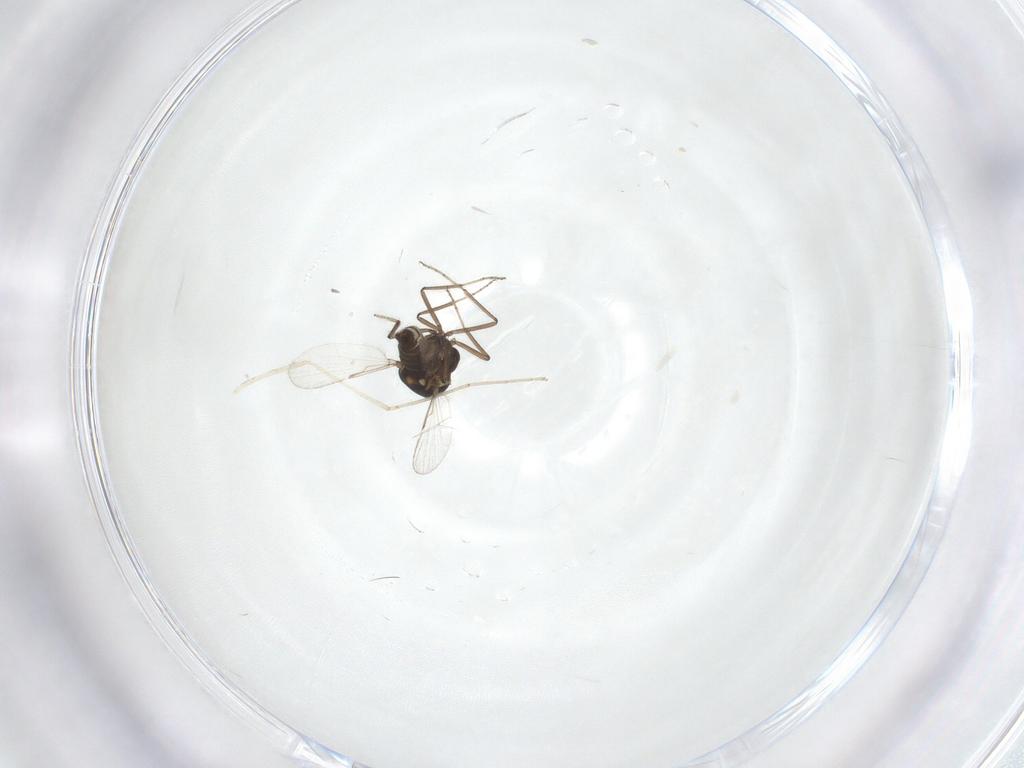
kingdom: Animalia
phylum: Arthropoda
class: Insecta
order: Diptera
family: Ceratopogonidae
